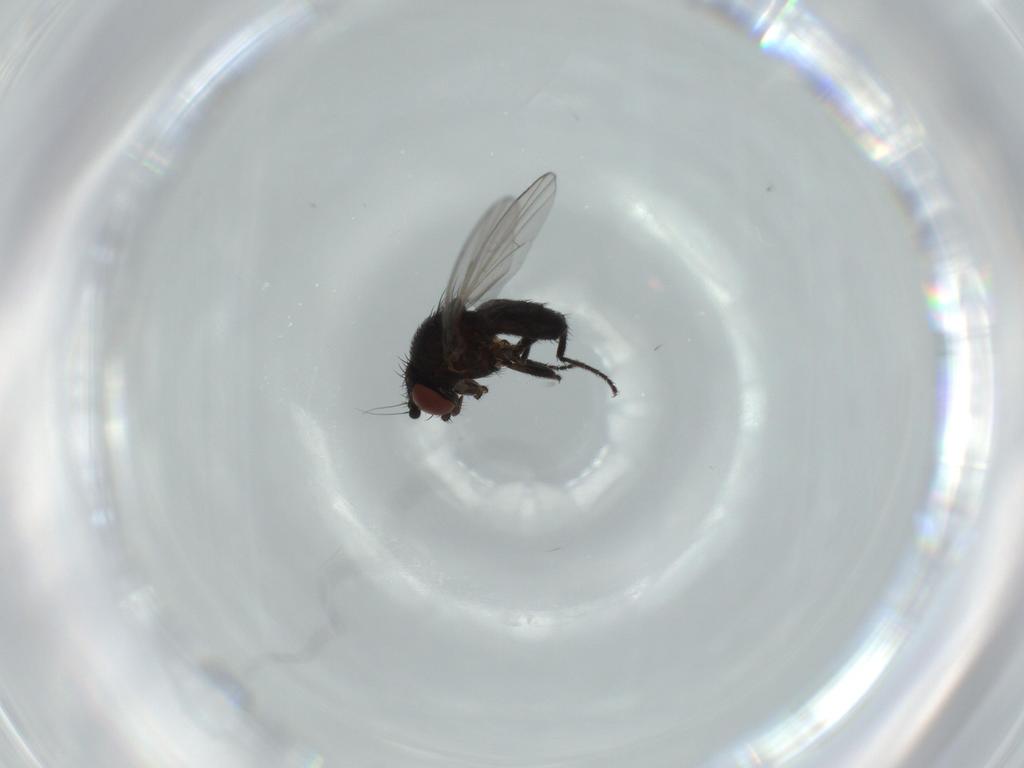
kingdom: Animalia
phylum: Arthropoda
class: Insecta
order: Diptera
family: Milichiidae
